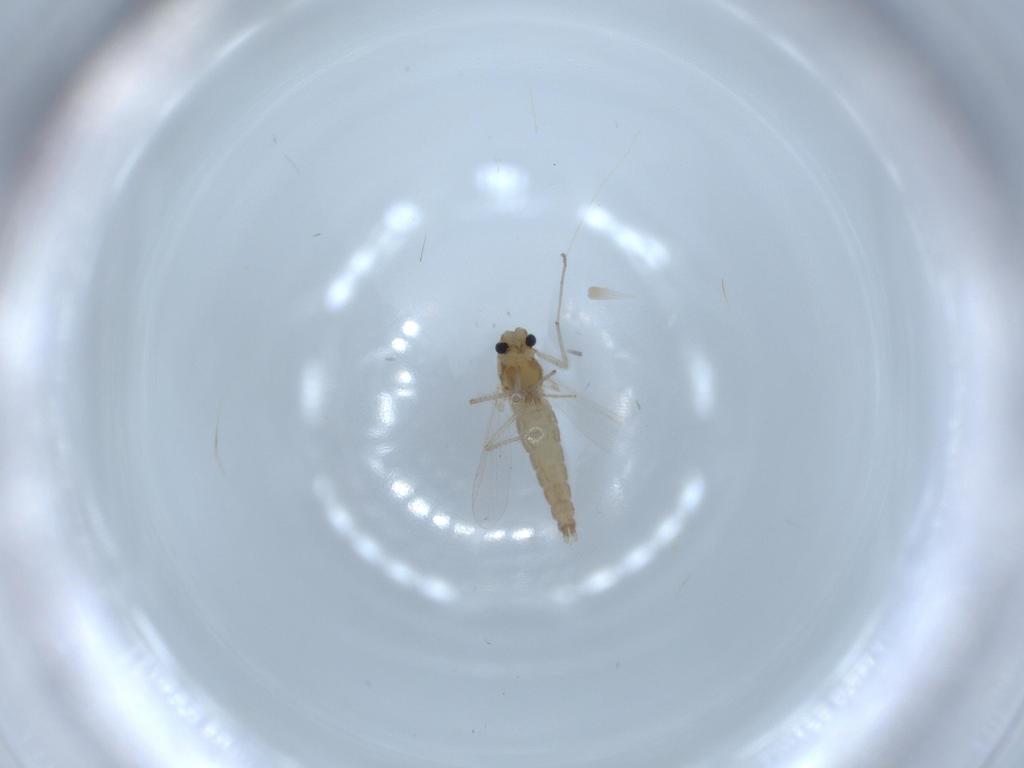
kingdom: Animalia
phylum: Arthropoda
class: Insecta
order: Diptera
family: Chironomidae
